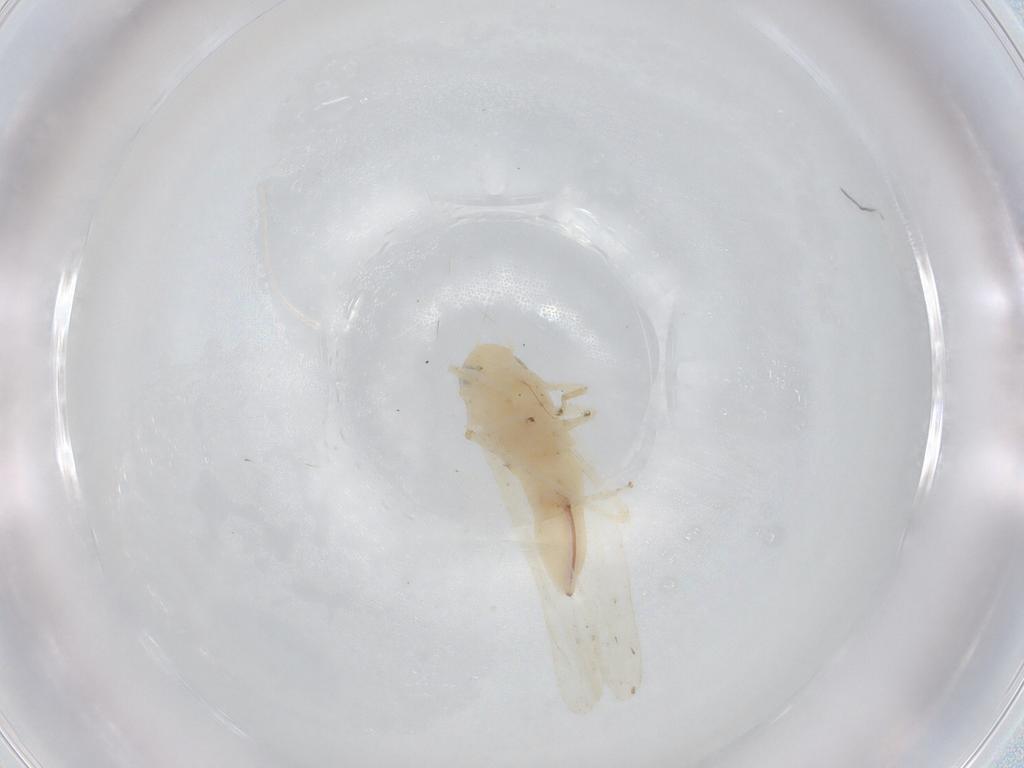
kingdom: Animalia
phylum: Arthropoda
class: Insecta
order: Hemiptera
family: Cicadellidae
